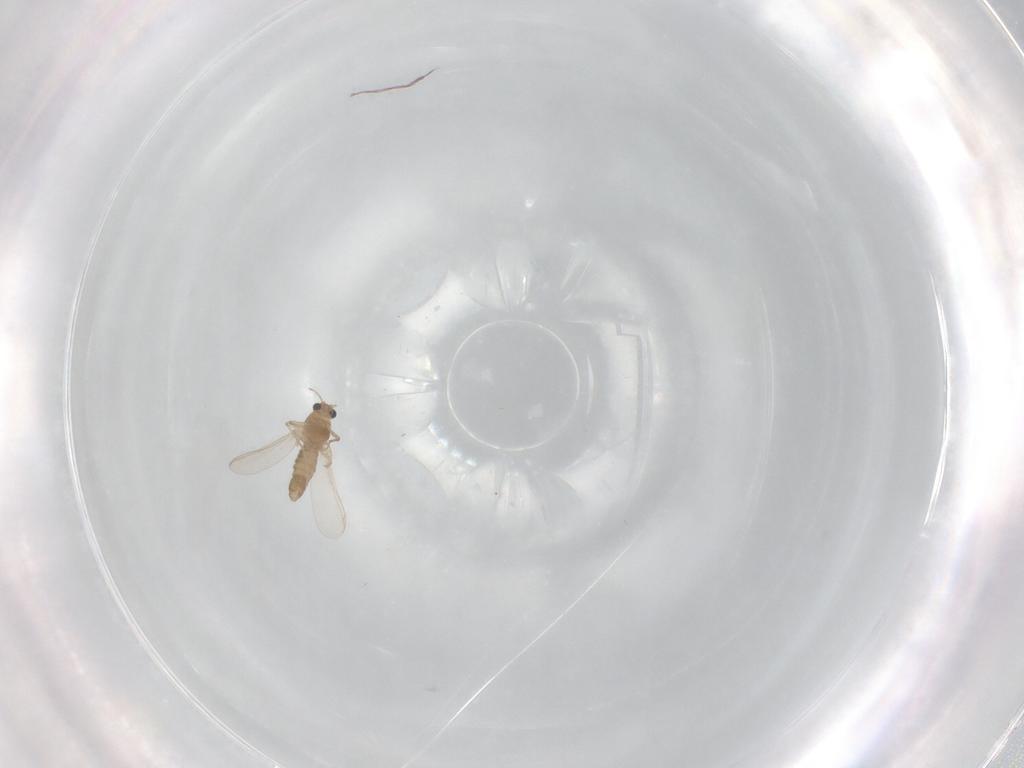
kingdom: Animalia
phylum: Arthropoda
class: Insecta
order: Diptera
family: Chironomidae
